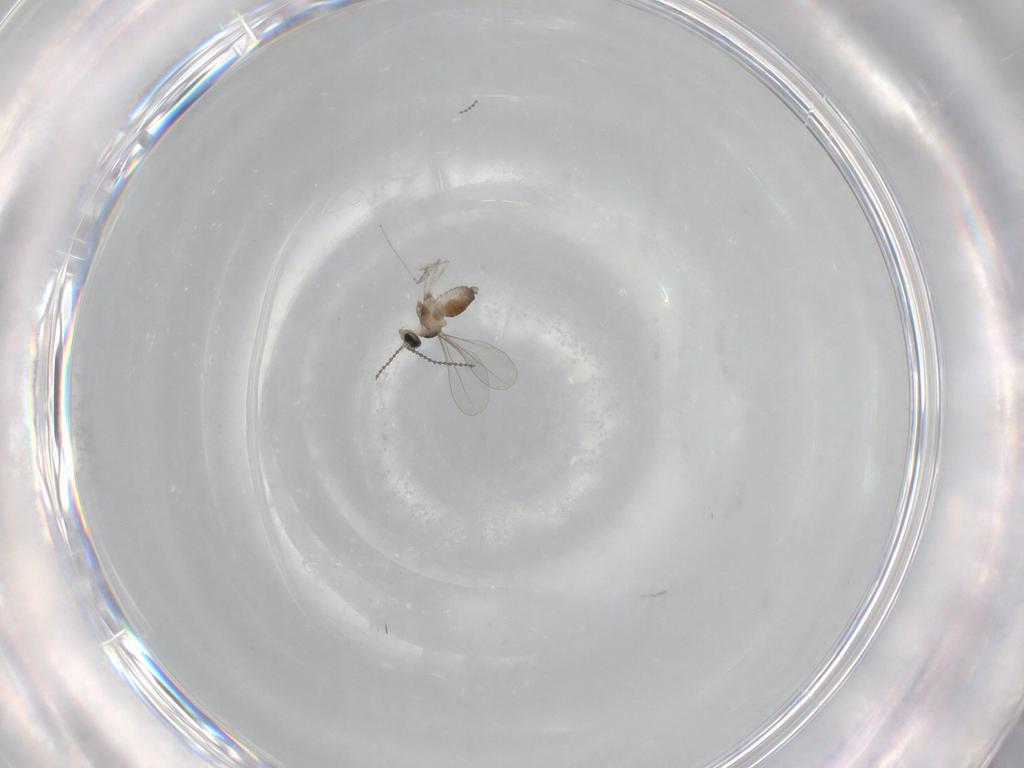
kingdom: Animalia
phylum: Arthropoda
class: Insecta
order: Diptera
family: Cecidomyiidae
